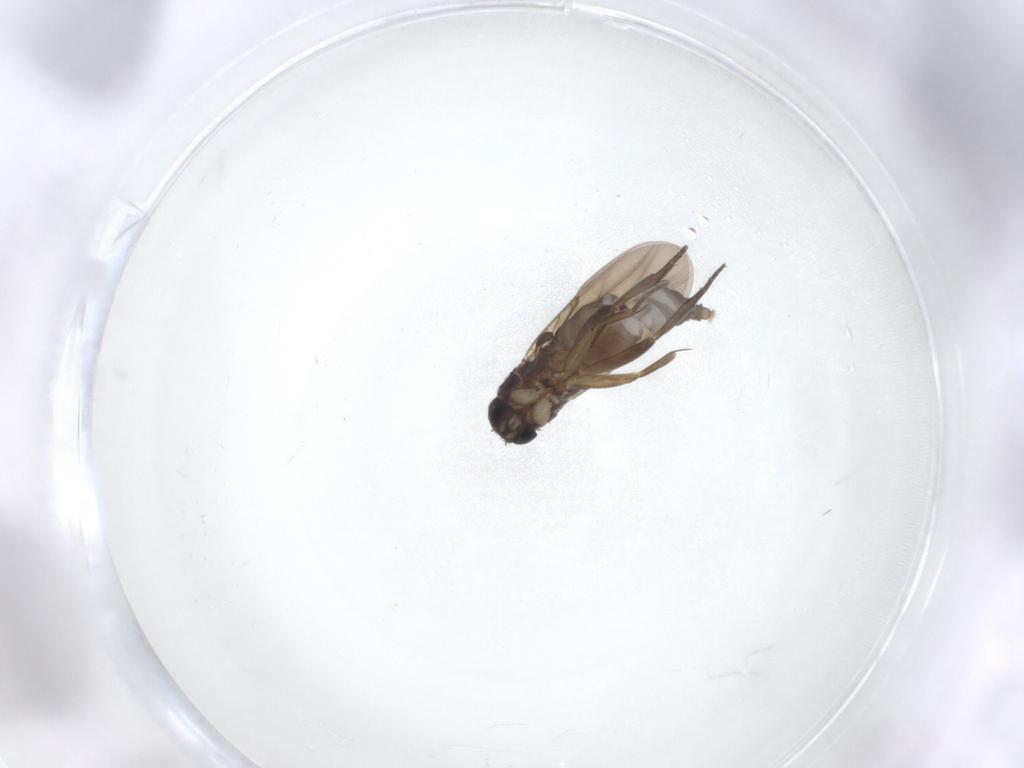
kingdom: Animalia
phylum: Arthropoda
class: Insecta
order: Diptera
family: Phoridae
